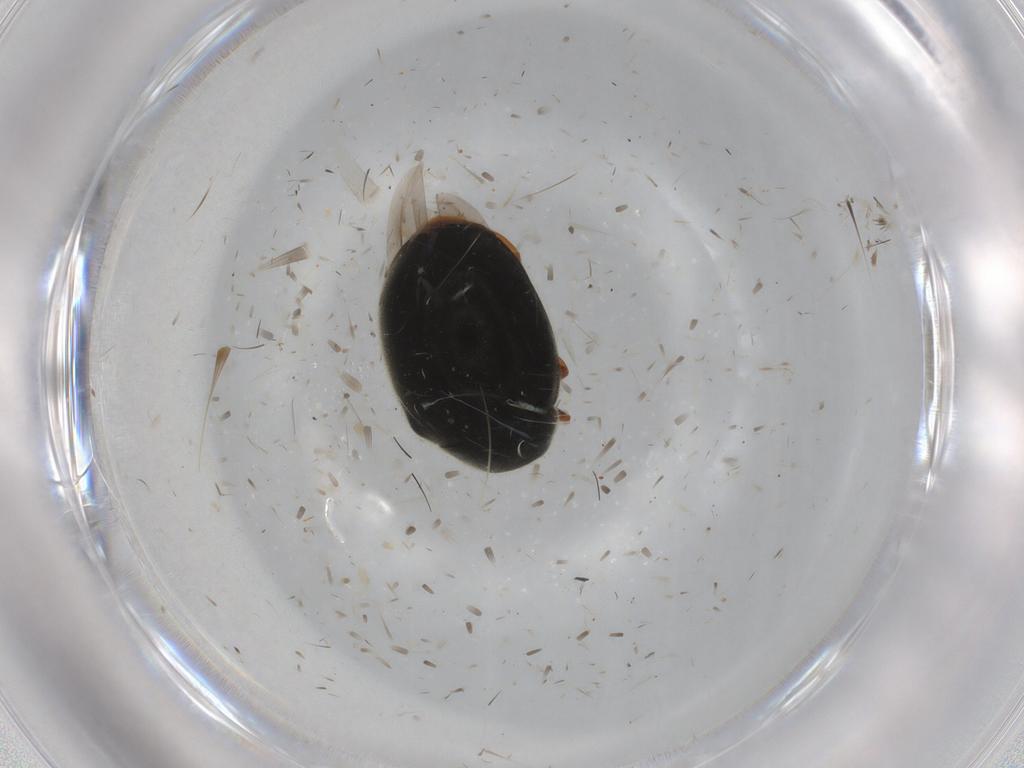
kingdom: Animalia
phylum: Arthropoda
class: Insecta
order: Coleoptera
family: Coccinellidae
